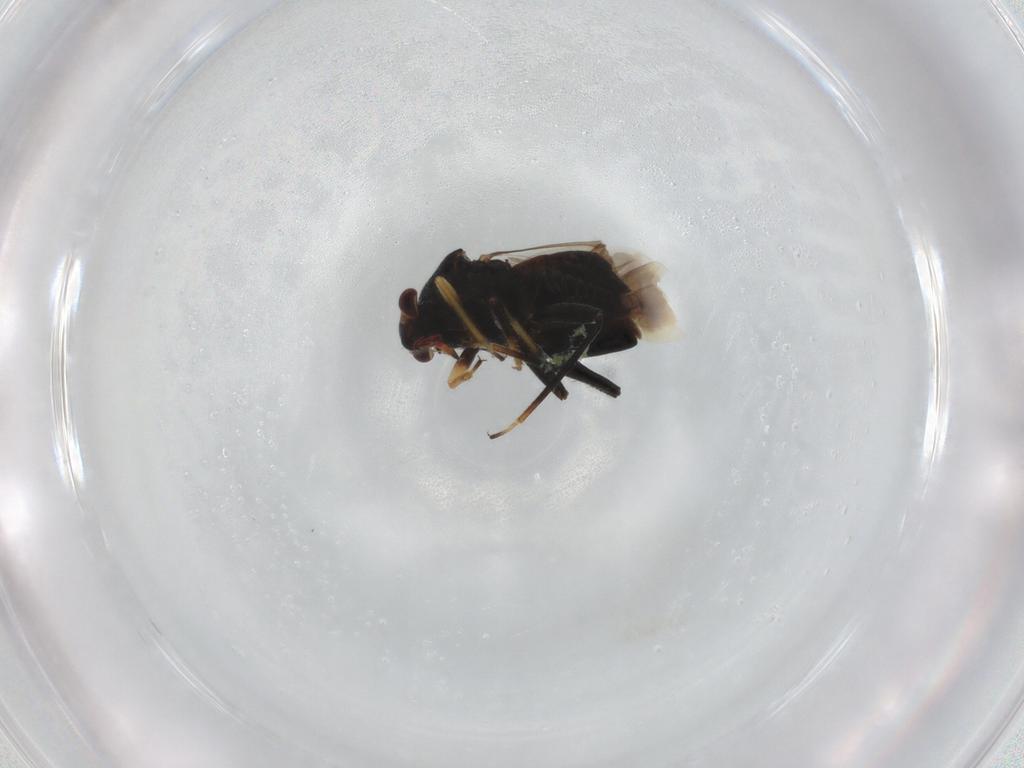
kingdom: Animalia
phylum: Arthropoda
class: Insecta
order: Hemiptera
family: Miridae
